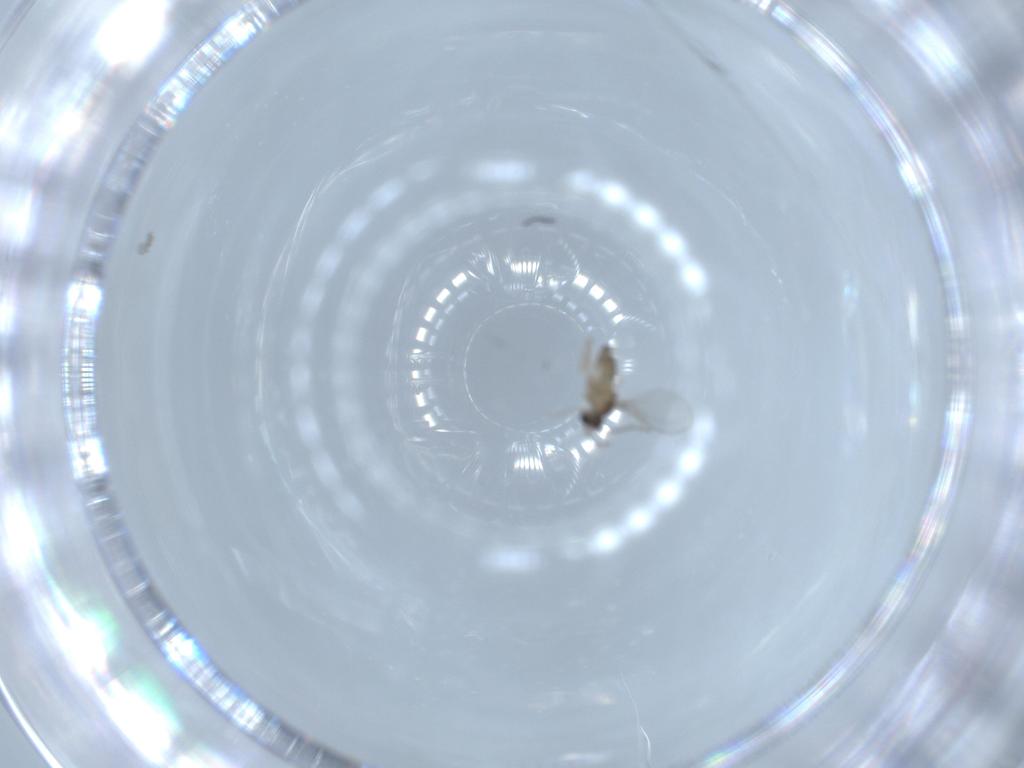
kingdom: Animalia
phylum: Arthropoda
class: Insecta
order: Diptera
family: Cecidomyiidae
